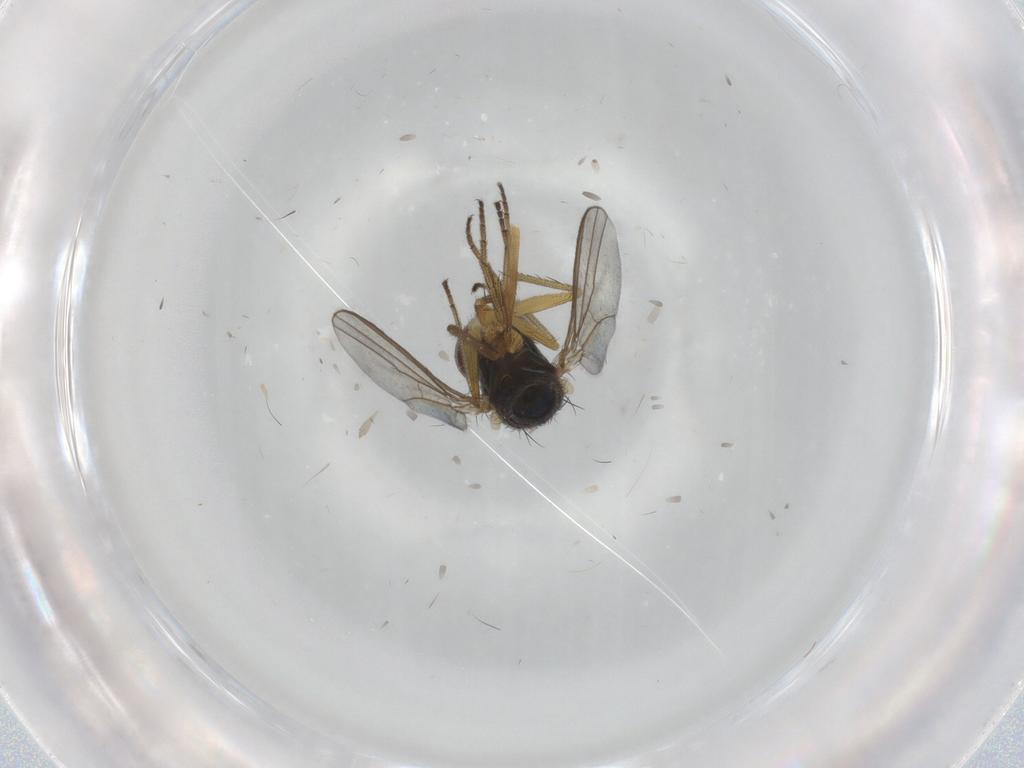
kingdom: Animalia
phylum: Arthropoda
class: Insecta
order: Diptera
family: Dolichopodidae
